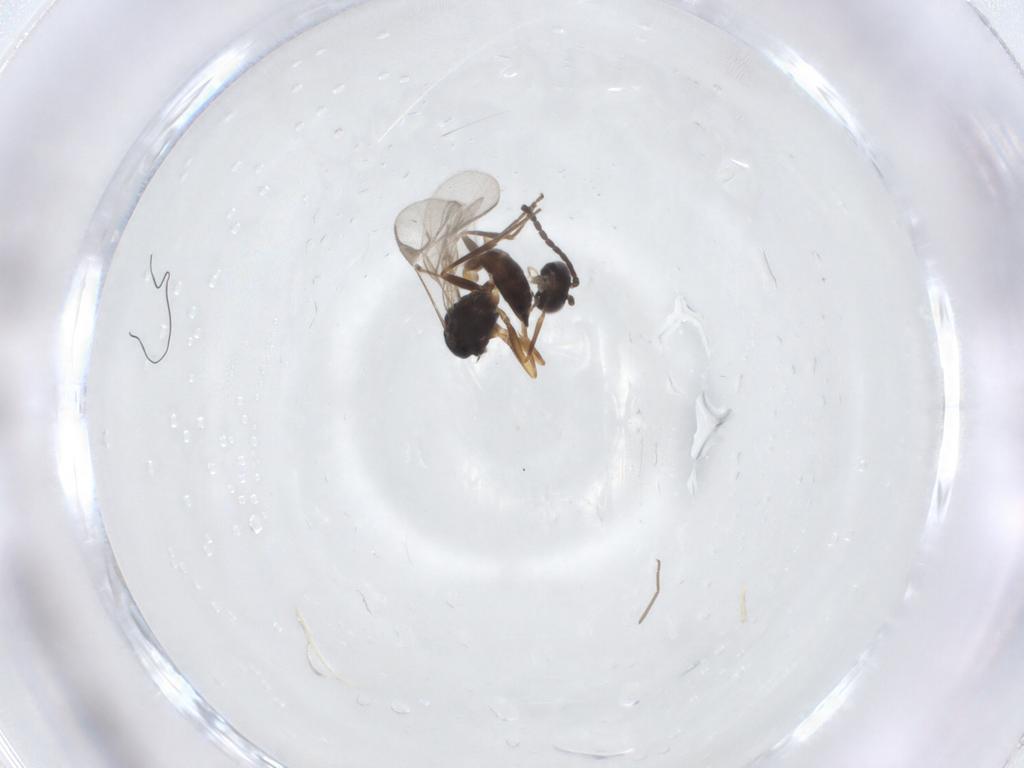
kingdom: Animalia
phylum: Arthropoda
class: Insecta
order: Hymenoptera
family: Braconidae
